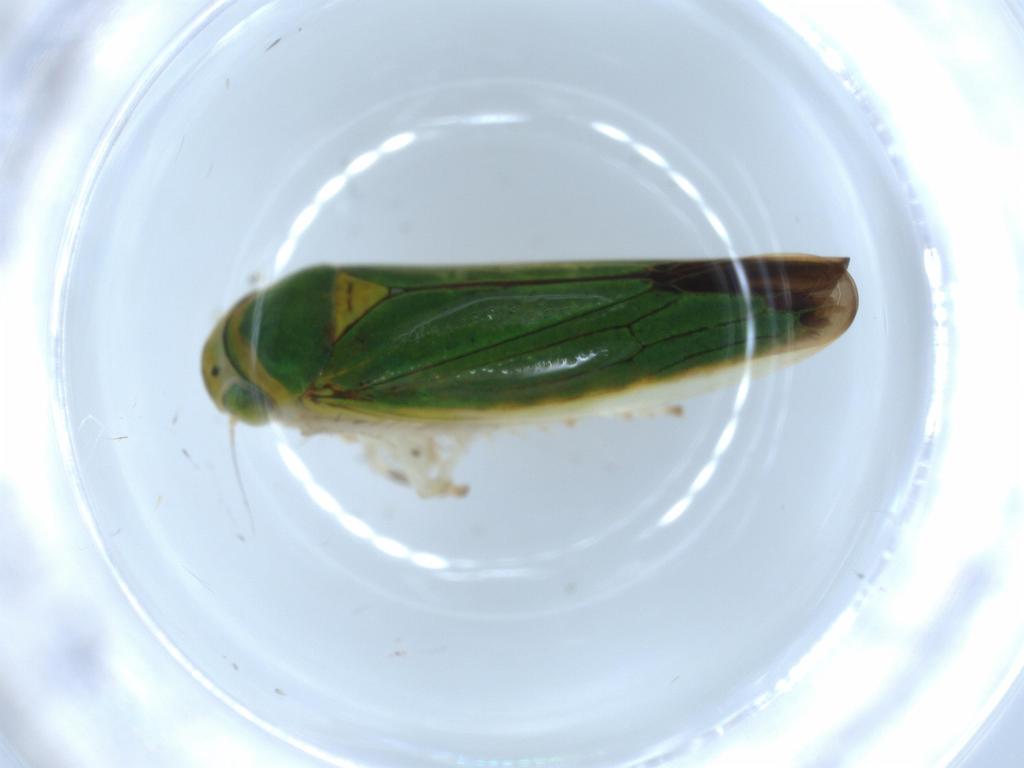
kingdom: Animalia
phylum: Arthropoda
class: Insecta
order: Hemiptera
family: Cicadellidae
